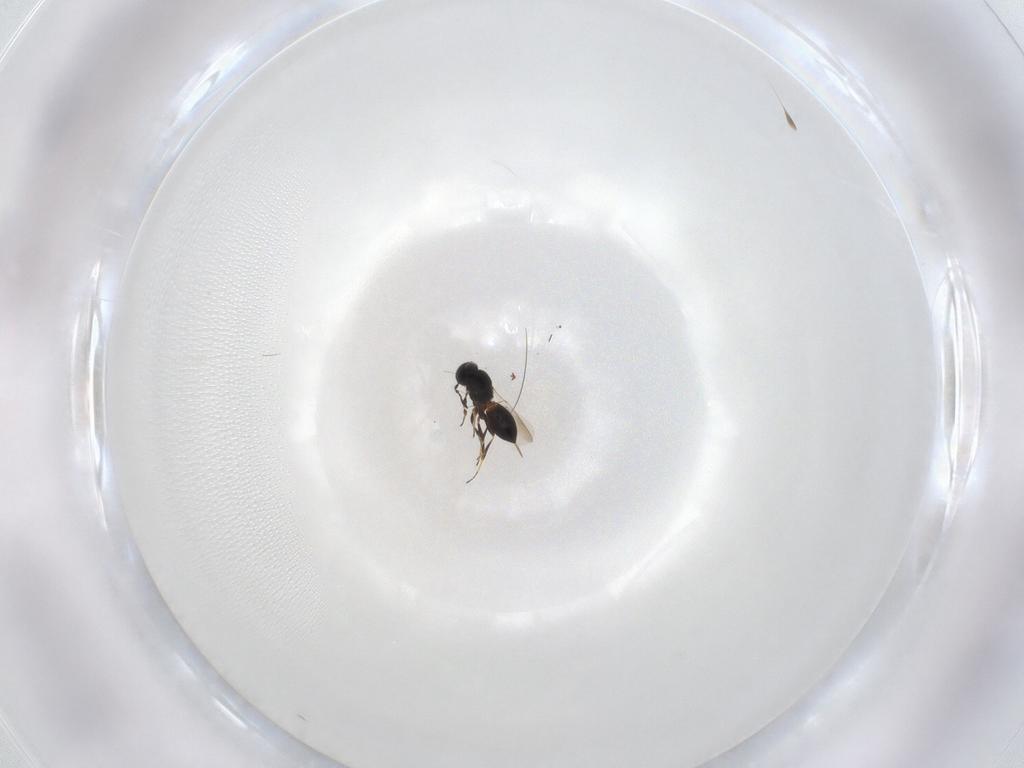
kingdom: Animalia
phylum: Arthropoda
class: Insecta
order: Hymenoptera
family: Platygastridae
